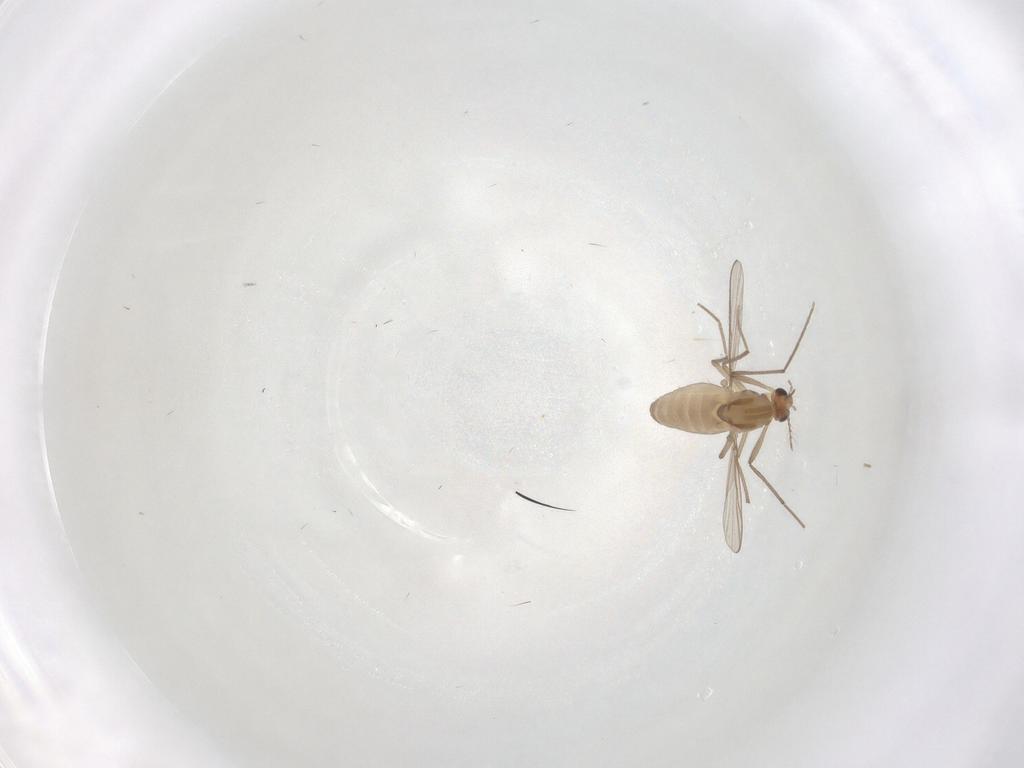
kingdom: Animalia
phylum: Arthropoda
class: Insecta
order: Diptera
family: Chironomidae
